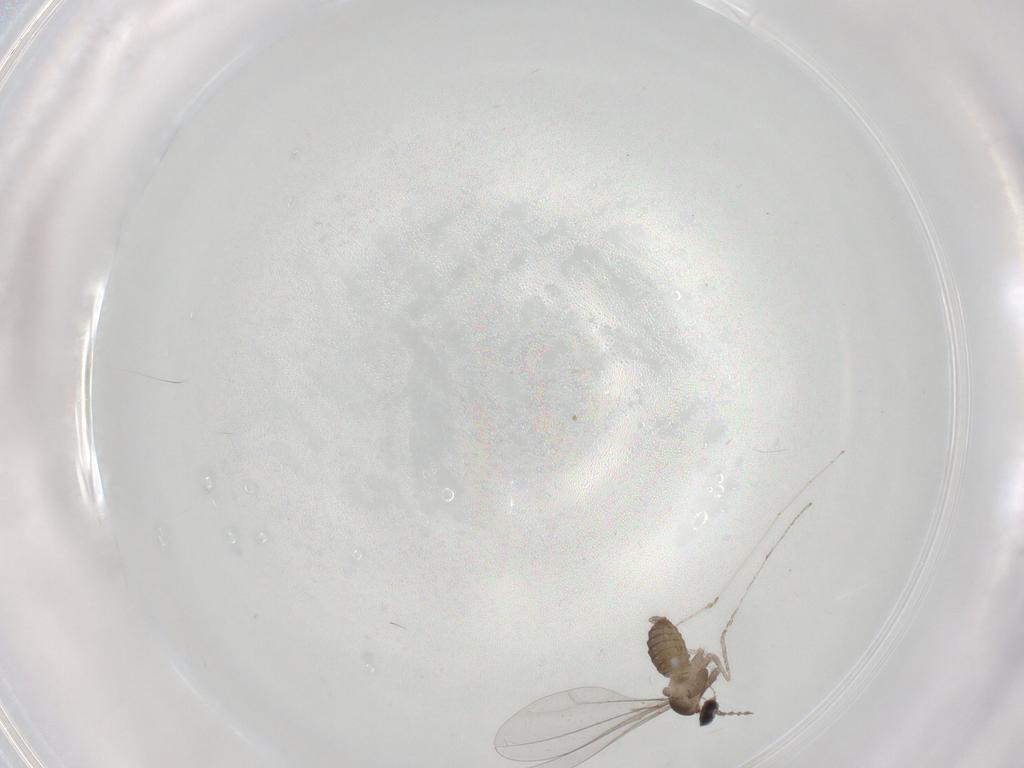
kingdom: Animalia
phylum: Arthropoda
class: Insecta
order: Diptera
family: Cecidomyiidae
